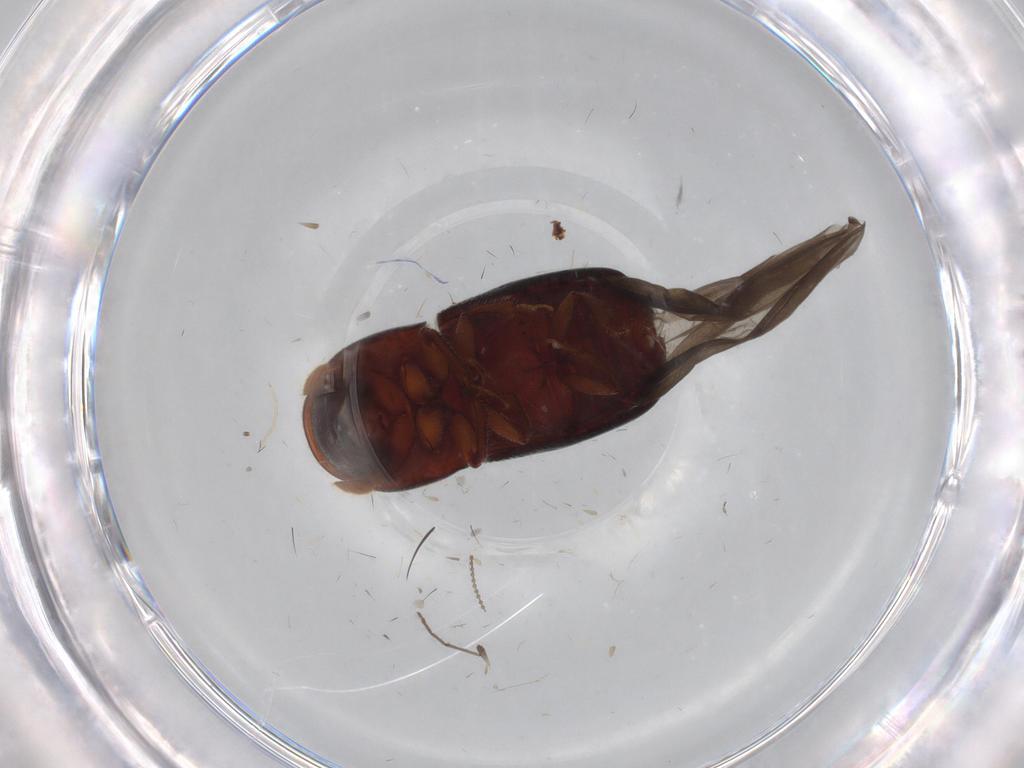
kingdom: Animalia
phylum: Arthropoda
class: Insecta
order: Coleoptera
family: Curculionidae
